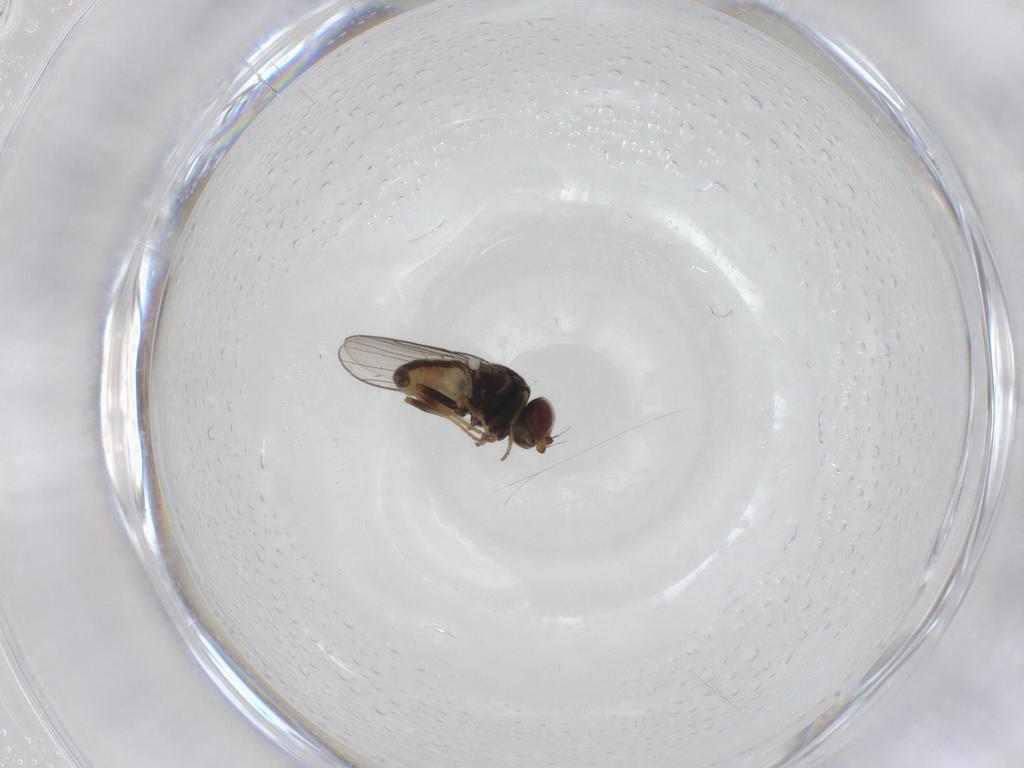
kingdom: Animalia
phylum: Arthropoda
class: Insecta
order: Diptera
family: Chloropidae
